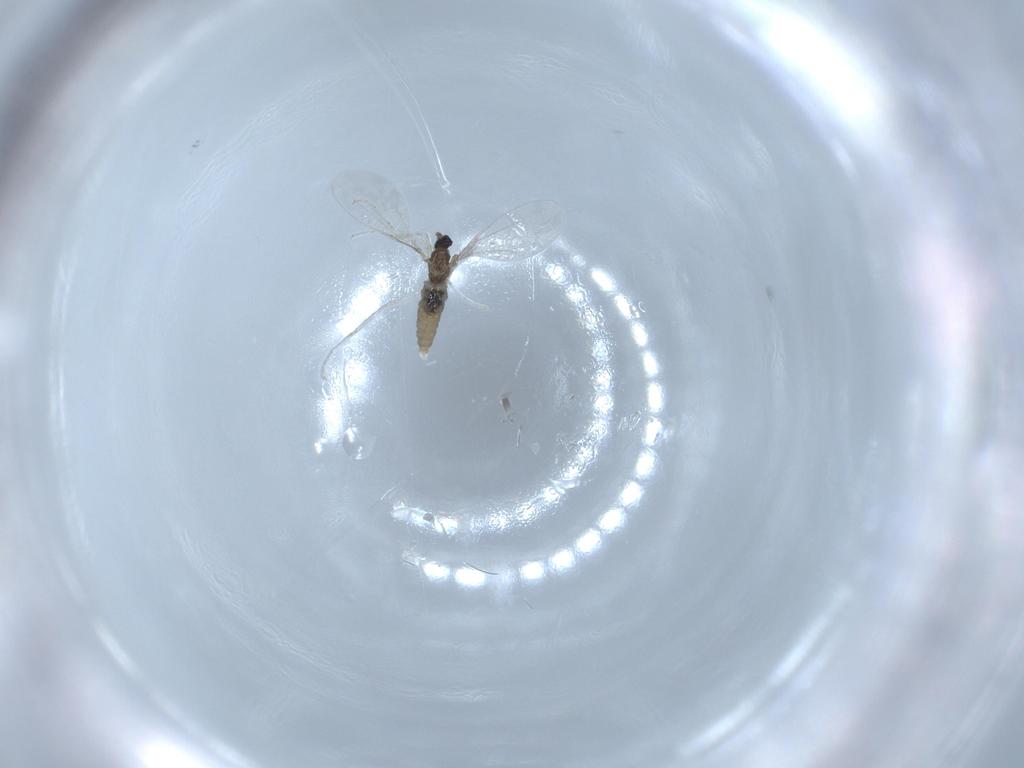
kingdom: Animalia
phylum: Arthropoda
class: Insecta
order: Diptera
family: Cecidomyiidae
